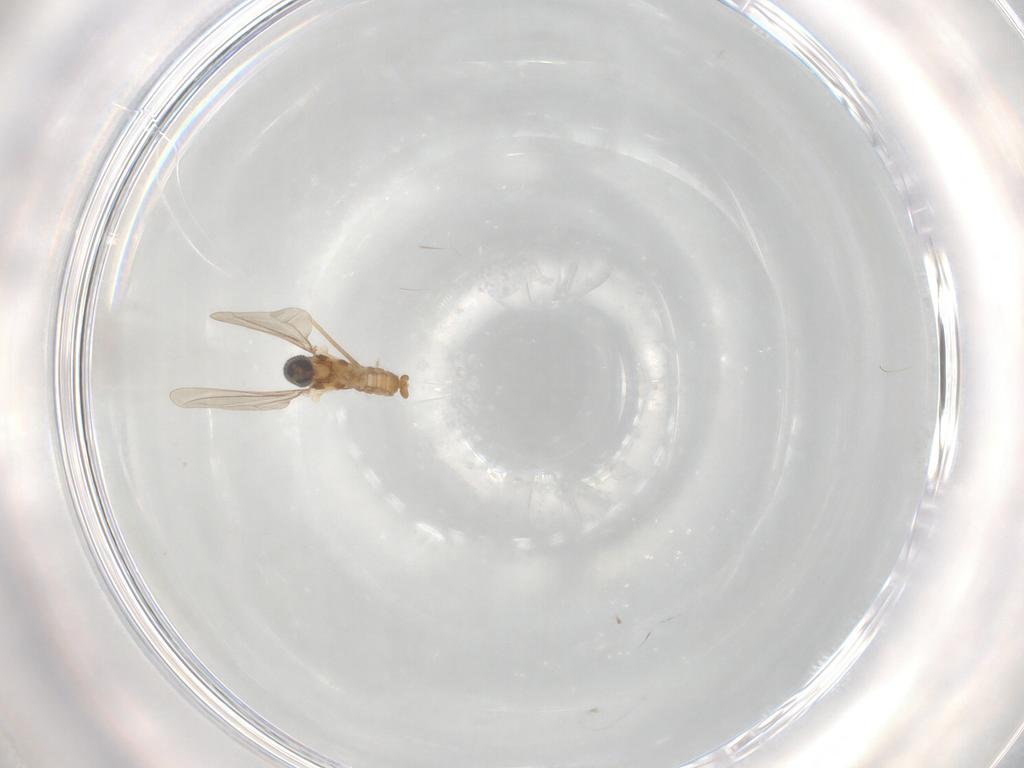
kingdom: Animalia
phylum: Arthropoda
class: Insecta
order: Diptera
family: Cecidomyiidae
